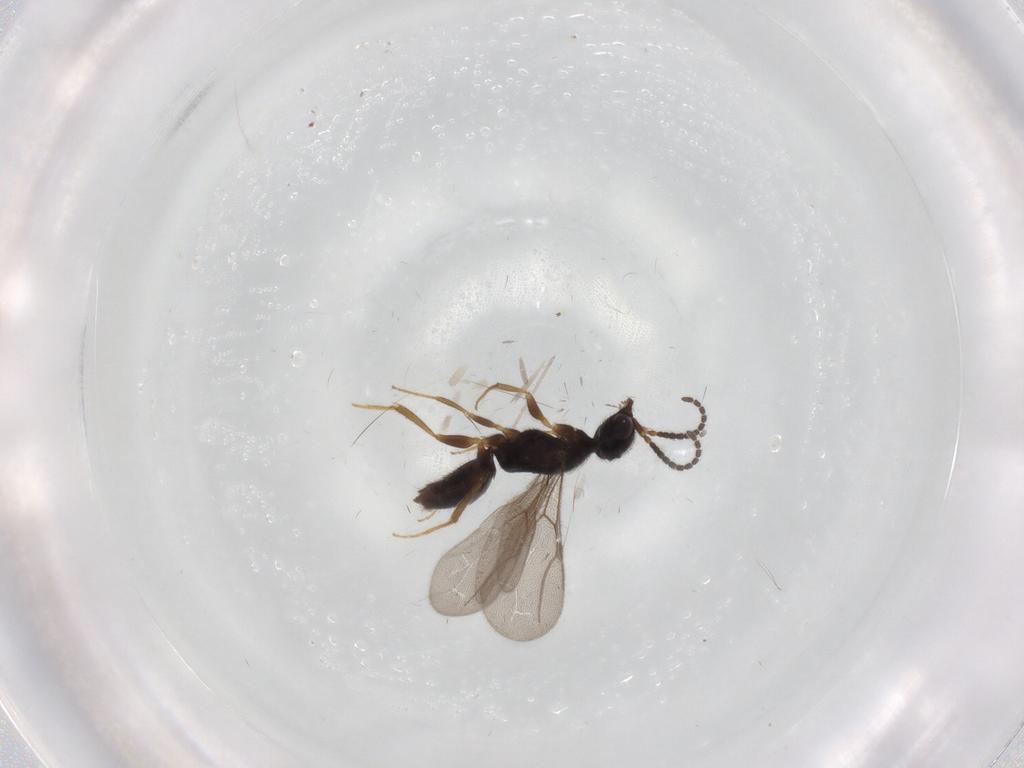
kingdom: Animalia
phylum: Arthropoda
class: Insecta
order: Hymenoptera
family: Bethylidae
